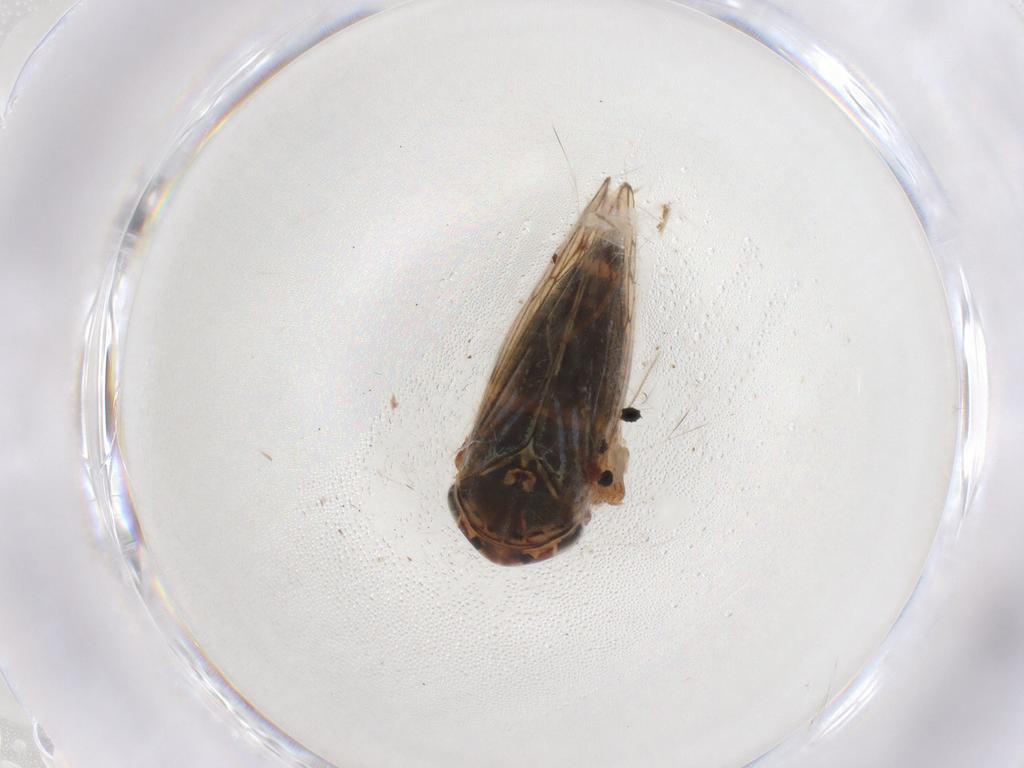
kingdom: Animalia
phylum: Arthropoda
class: Insecta
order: Hemiptera
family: Cicadellidae
